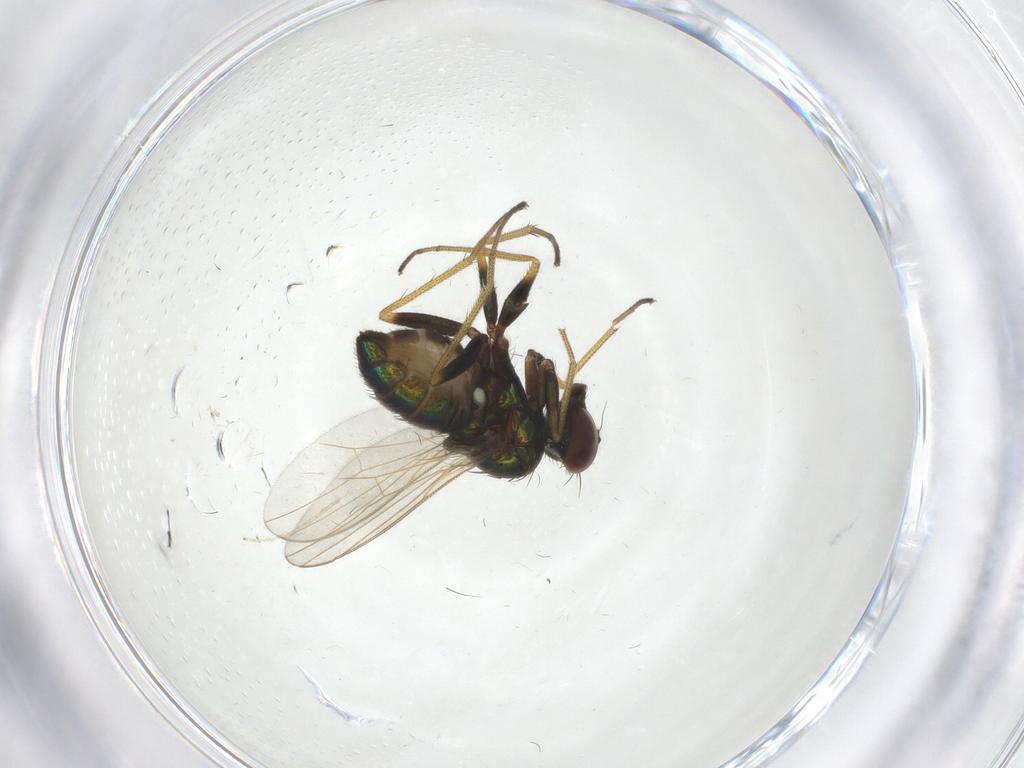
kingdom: Animalia
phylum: Arthropoda
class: Insecta
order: Diptera
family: Dolichopodidae
